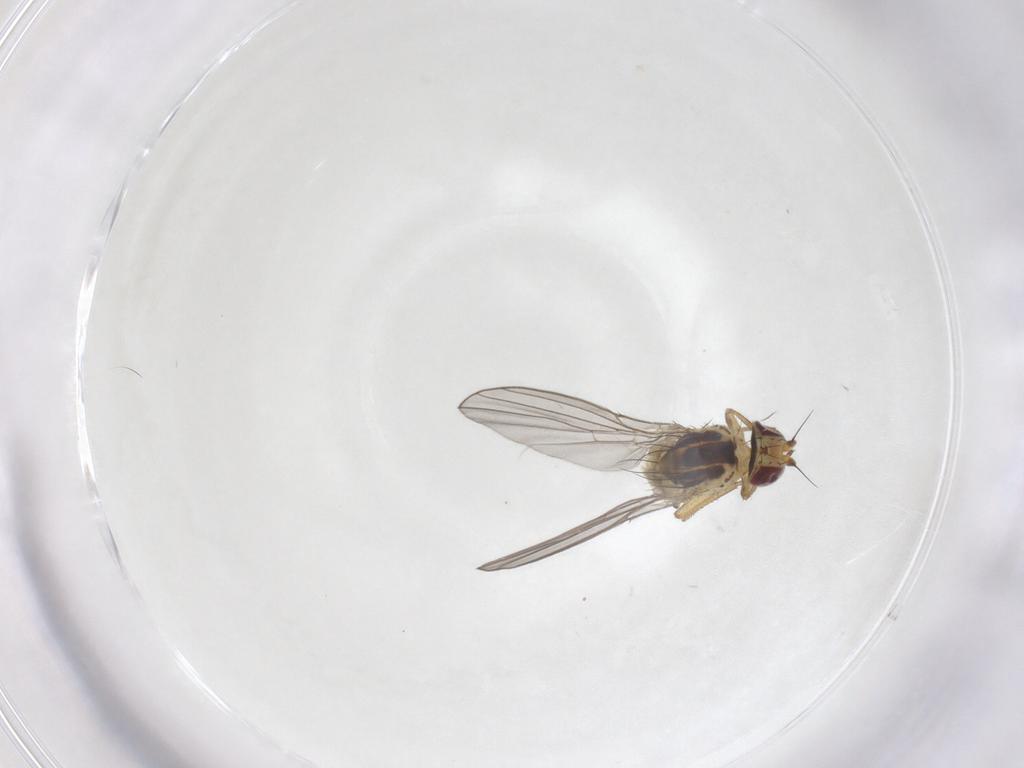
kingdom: Animalia
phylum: Arthropoda
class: Insecta
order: Diptera
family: Agromyzidae
